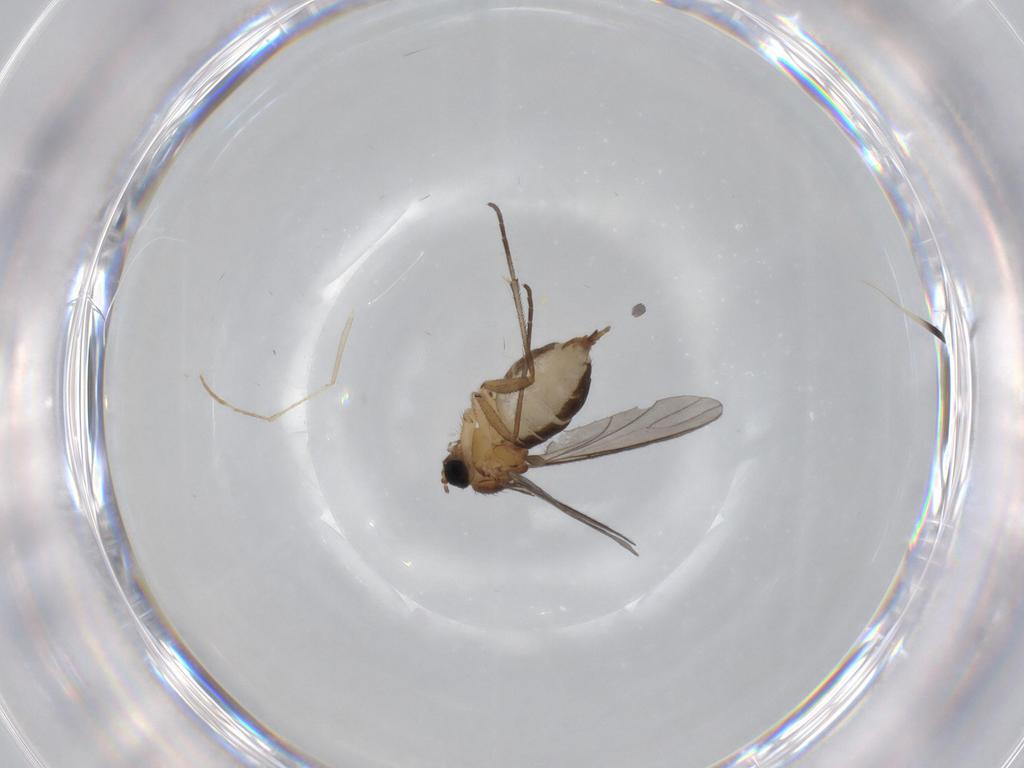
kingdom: Animalia
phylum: Arthropoda
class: Insecta
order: Diptera
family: Sciaridae
